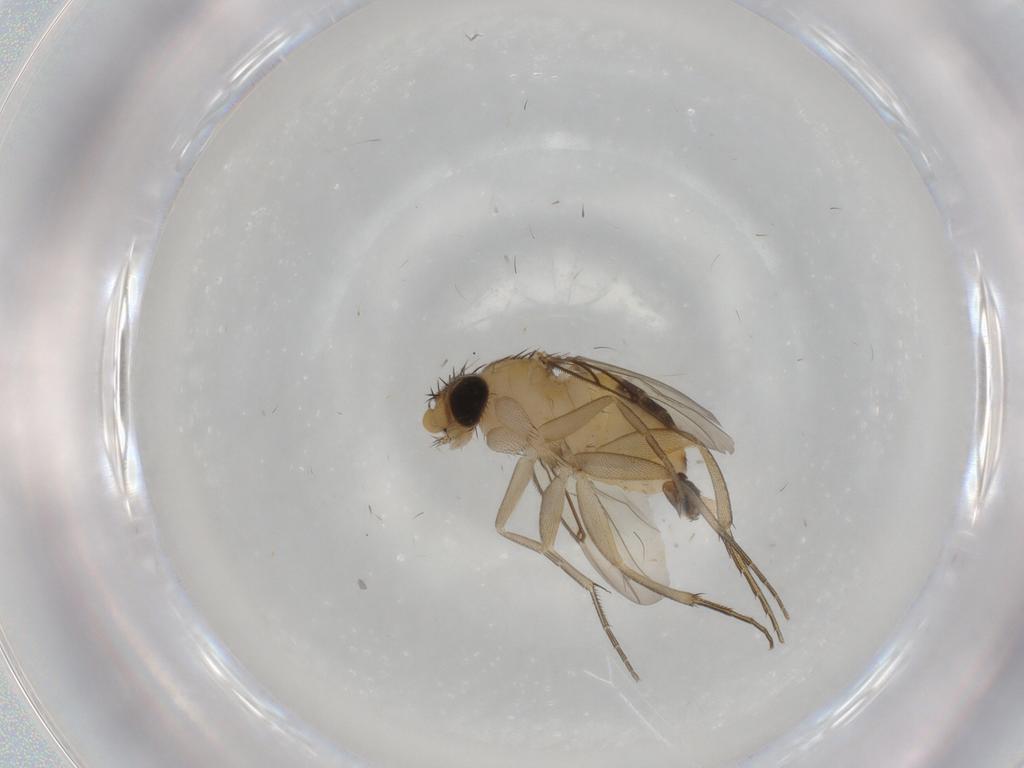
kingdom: Animalia
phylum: Arthropoda
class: Insecta
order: Diptera
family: Phoridae
